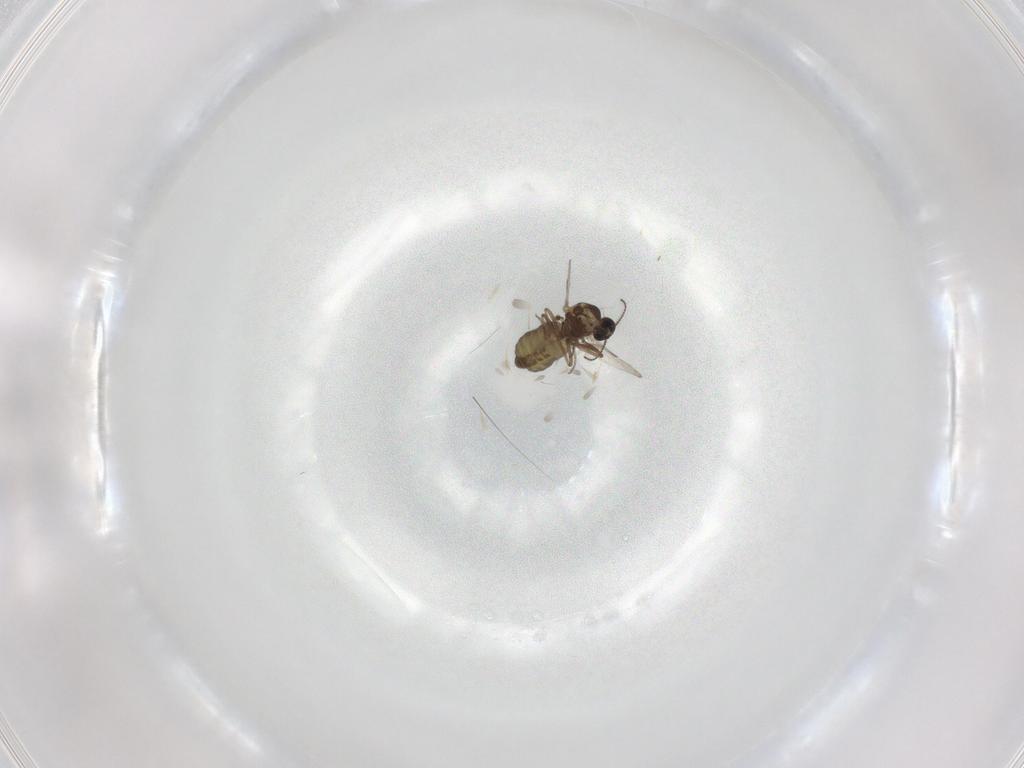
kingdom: Animalia
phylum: Arthropoda
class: Insecta
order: Diptera
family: Ceratopogonidae
